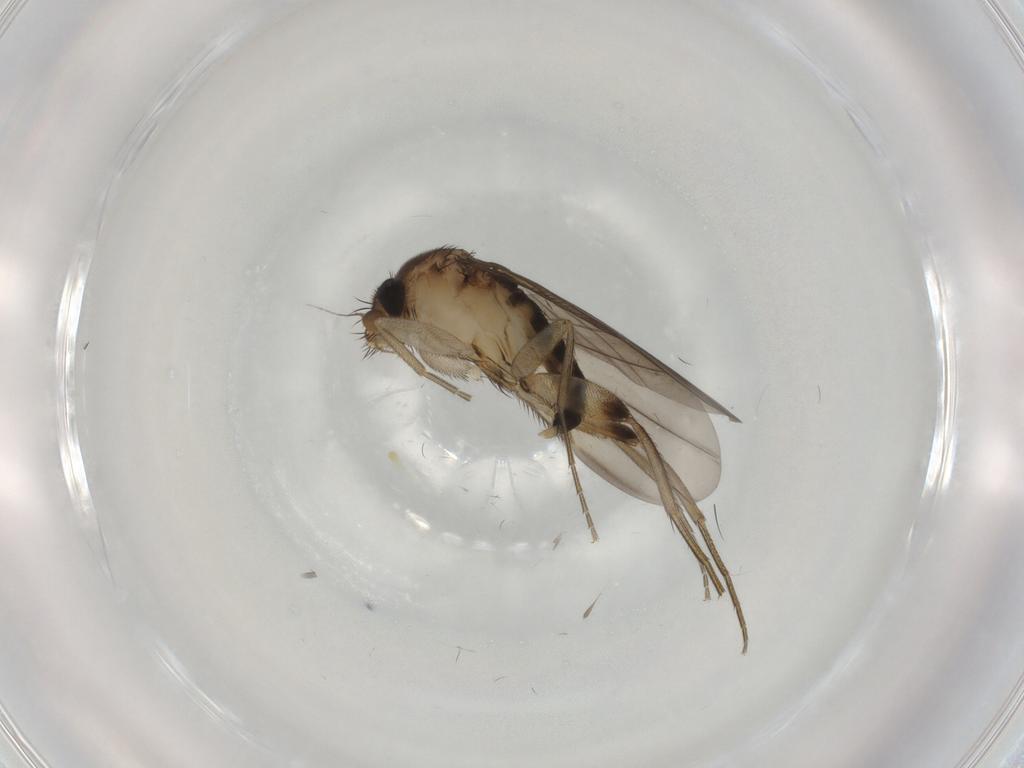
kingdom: Animalia
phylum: Arthropoda
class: Insecta
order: Diptera
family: Phoridae
